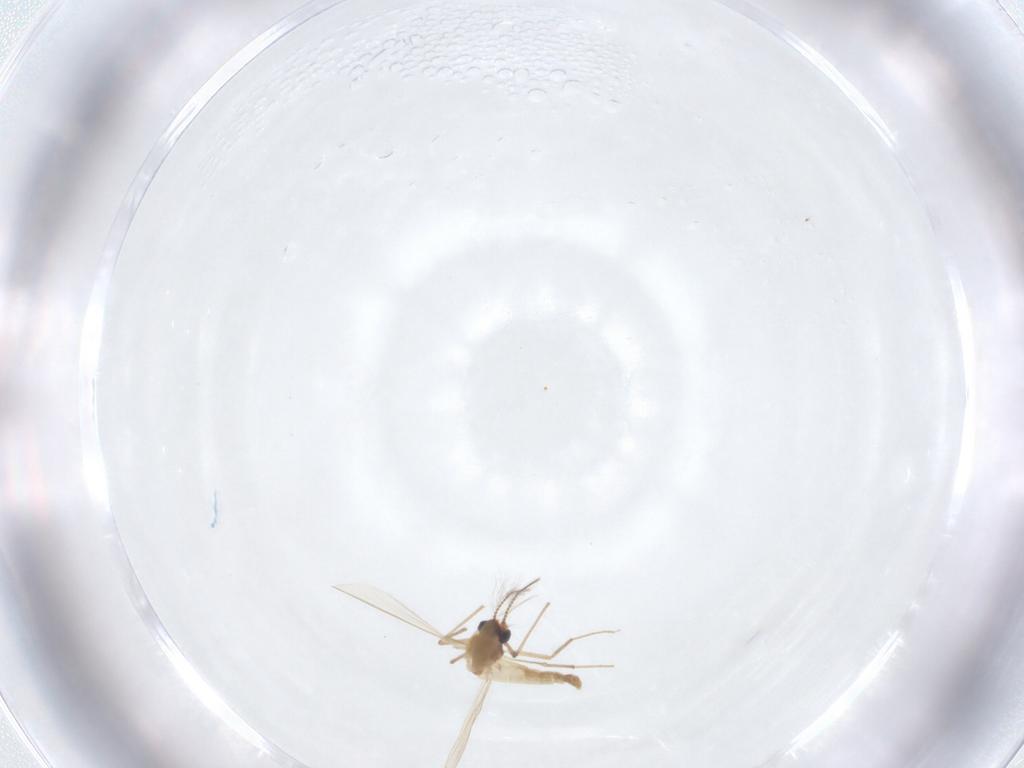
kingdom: Animalia
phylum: Arthropoda
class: Insecta
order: Diptera
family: Chironomidae
